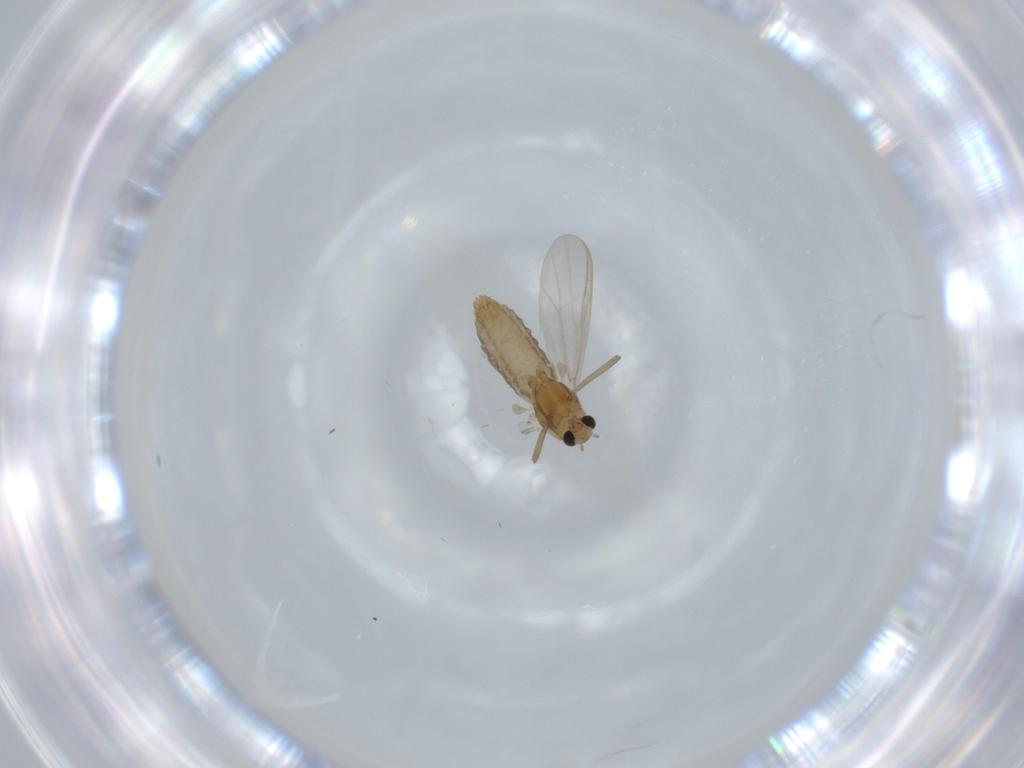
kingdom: Animalia
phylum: Arthropoda
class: Insecta
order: Diptera
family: Chironomidae
